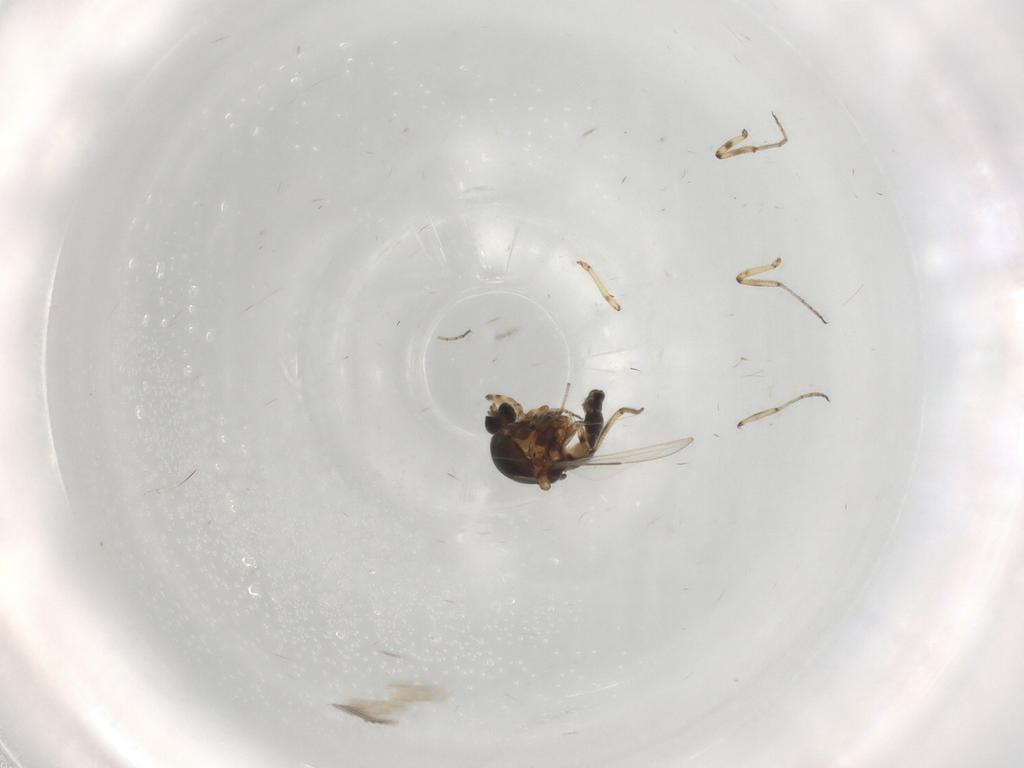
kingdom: Animalia
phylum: Arthropoda
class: Insecta
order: Diptera
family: Ceratopogonidae
